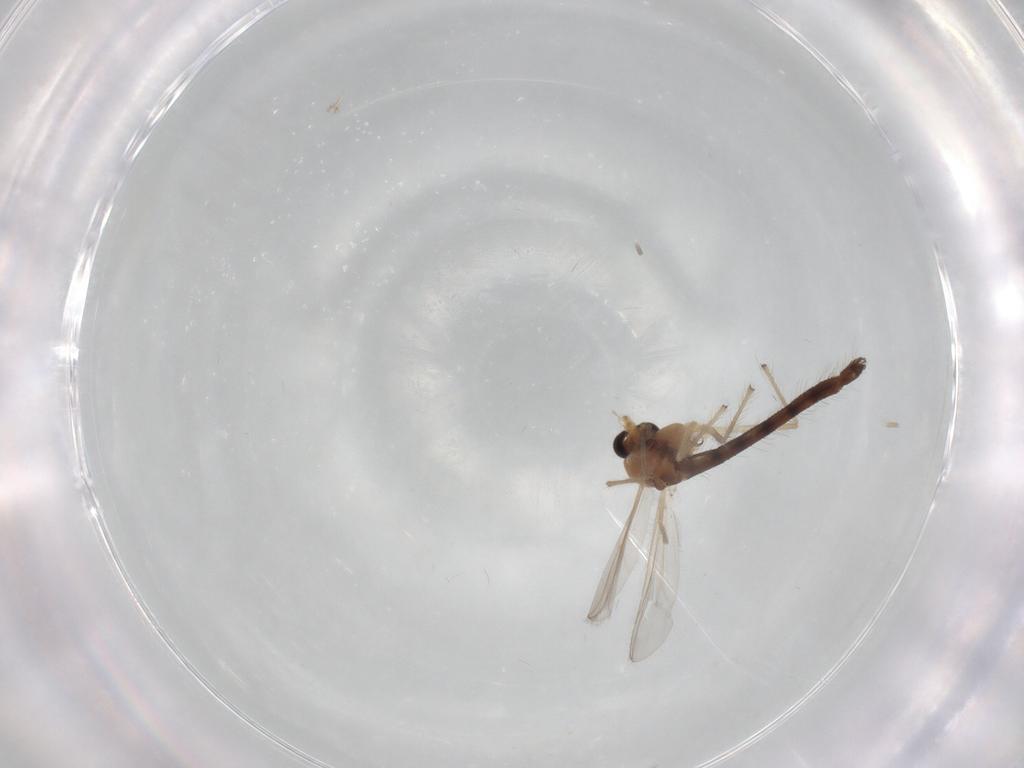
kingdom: Animalia
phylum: Arthropoda
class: Insecta
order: Diptera
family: Chironomidae
